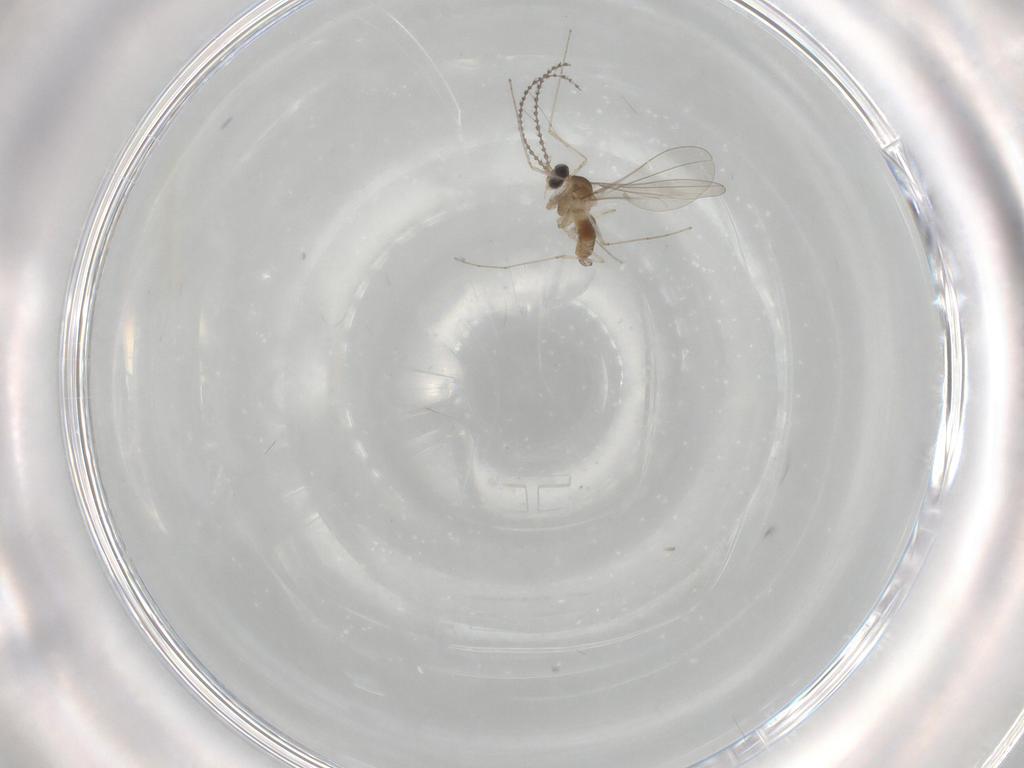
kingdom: Animalia
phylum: Arthropoda
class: Insecta
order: Diptera
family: Cecidomyiidae
